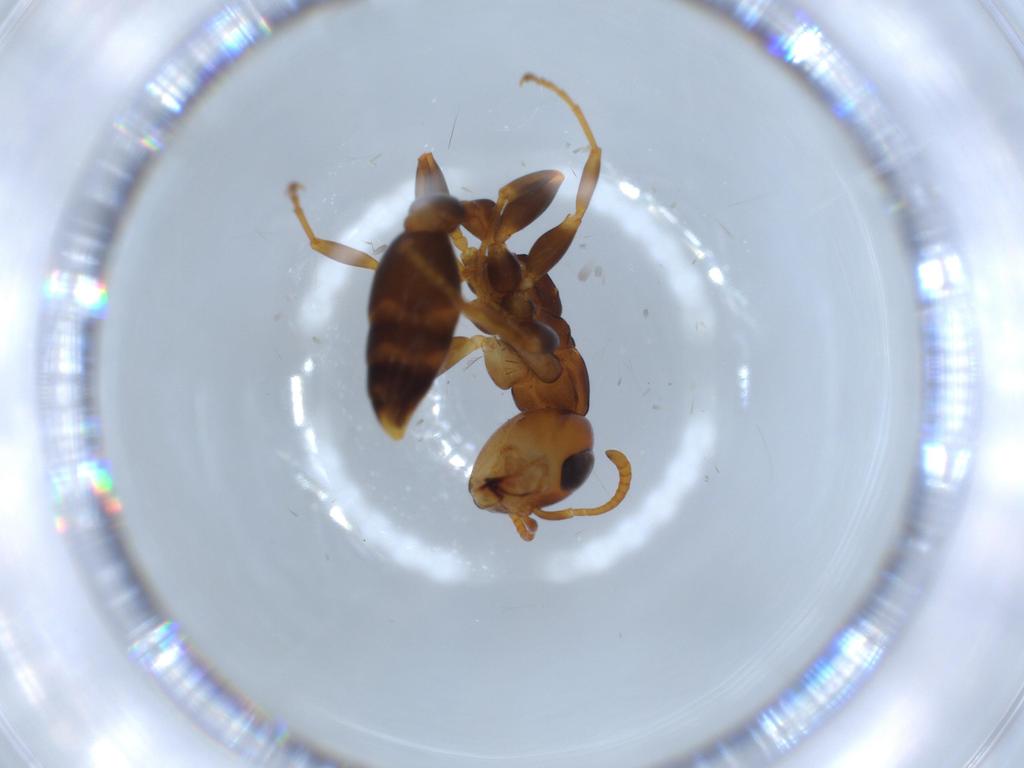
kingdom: Animalia
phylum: Arthropoda
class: Insecta
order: Hymenoptera
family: Formicidae
